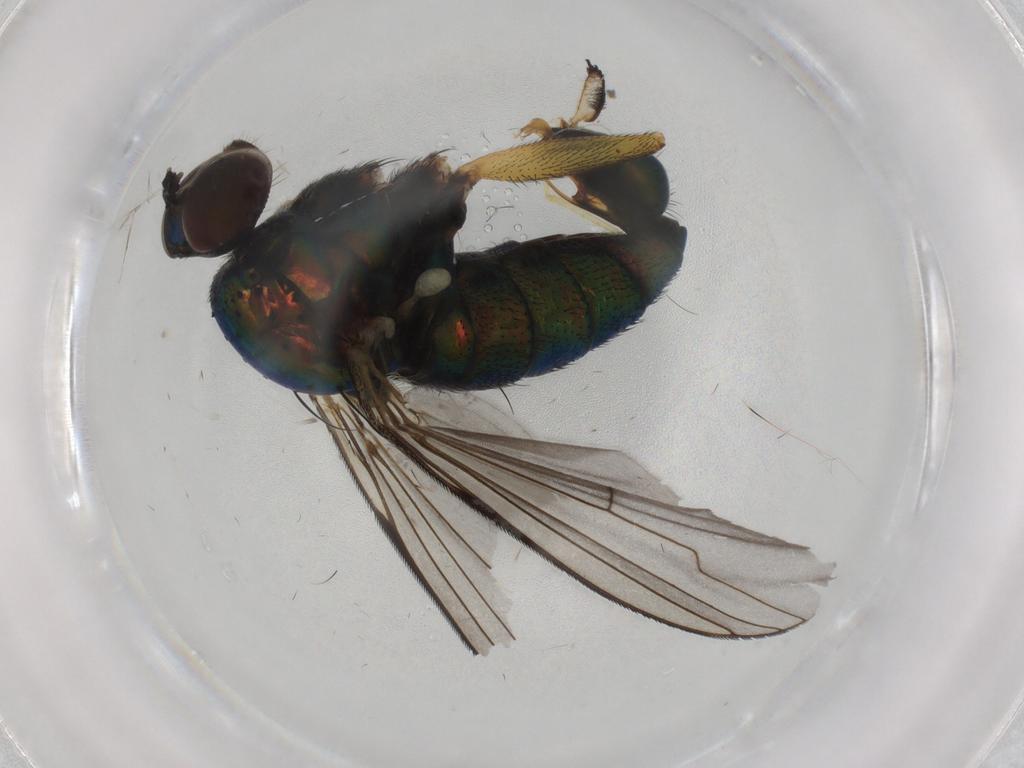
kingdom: Animalia
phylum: Arthropoda
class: Insecta
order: Diptera
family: Dolichopodidae
